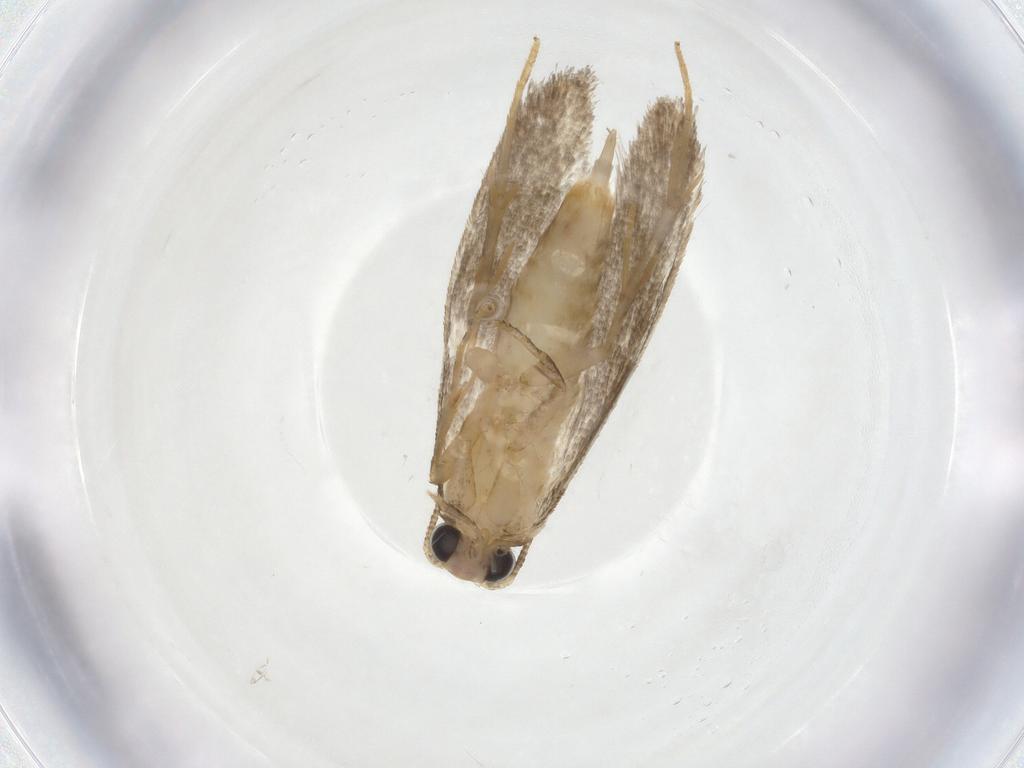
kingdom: Animalia
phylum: Arthropoda
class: Insecta
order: Lepidoptera
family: Tineidae
